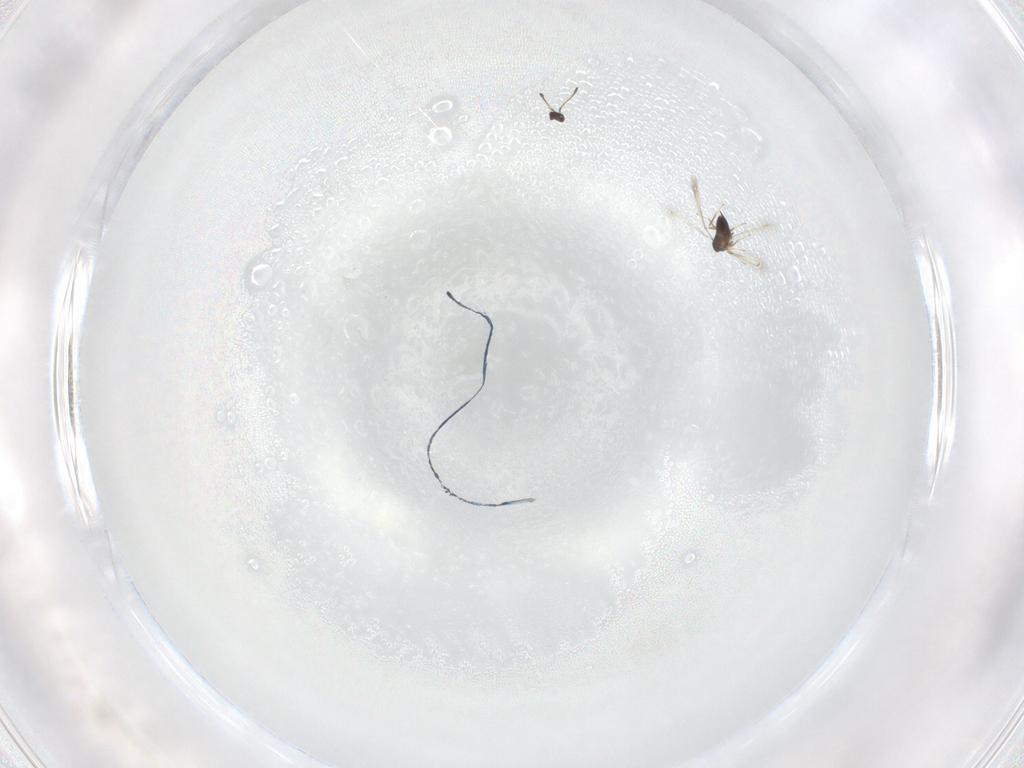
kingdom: Animalia
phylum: Arthropoda
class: Insecta
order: Hymenoptera
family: Diapriidae
